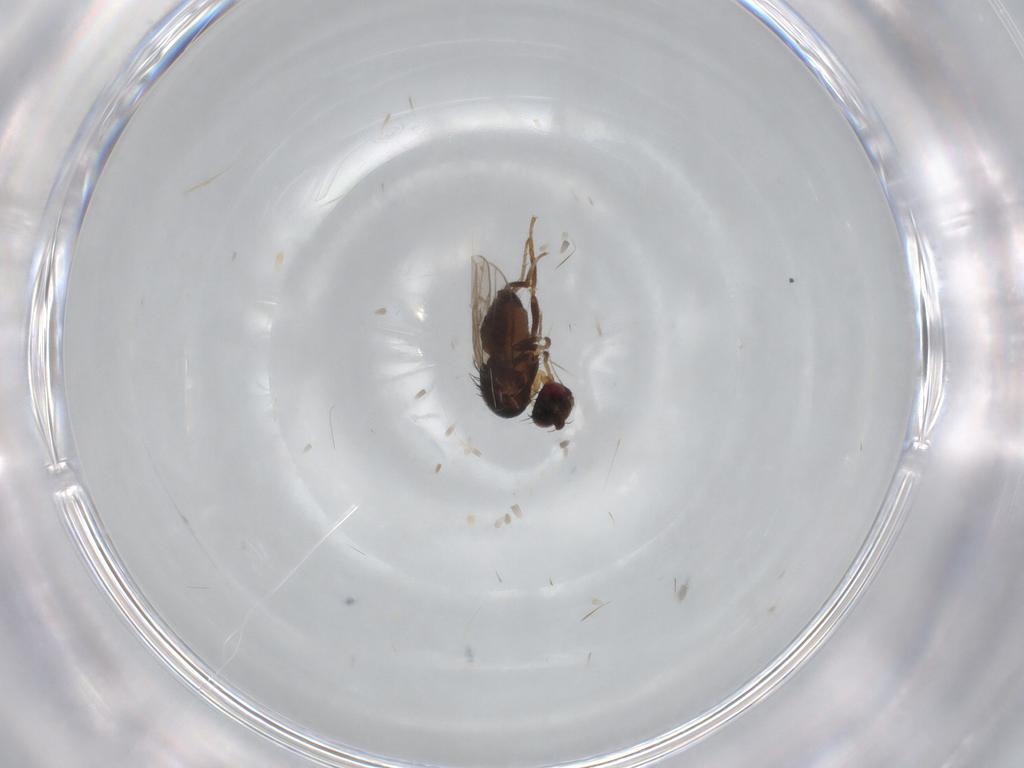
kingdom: Animalia
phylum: Arthropoda
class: Insecta
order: Diptera
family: Sphaeroceridae
